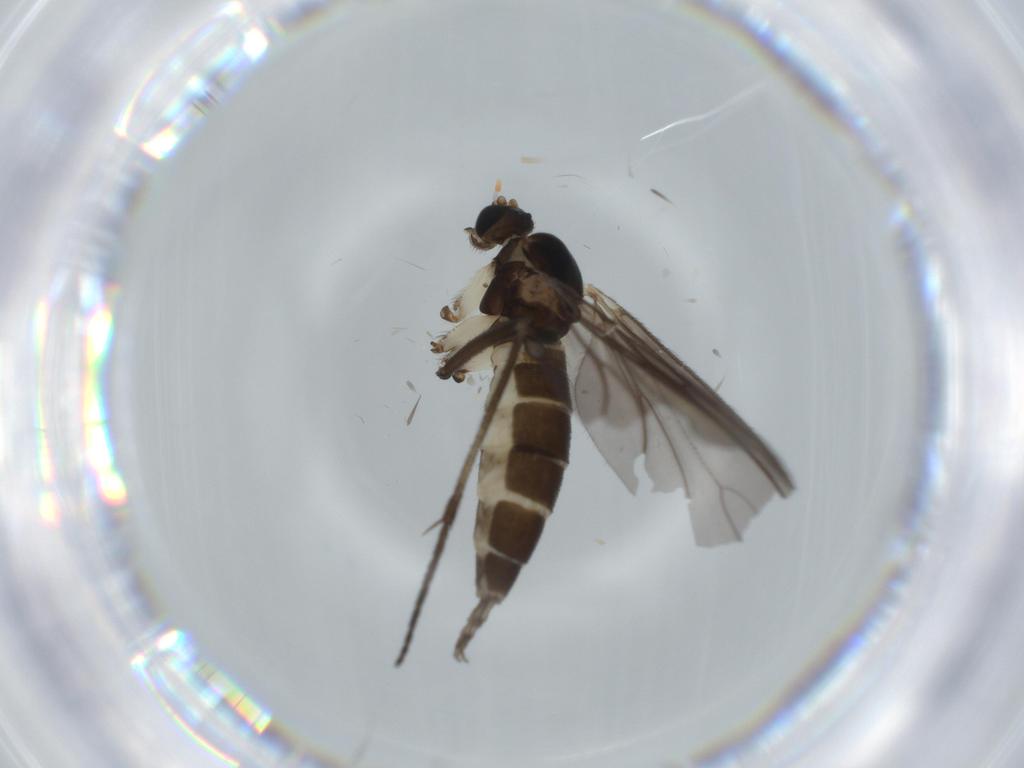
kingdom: Animalia
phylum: Arthropoda
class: Insecta
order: Diptera
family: Sciaridae
